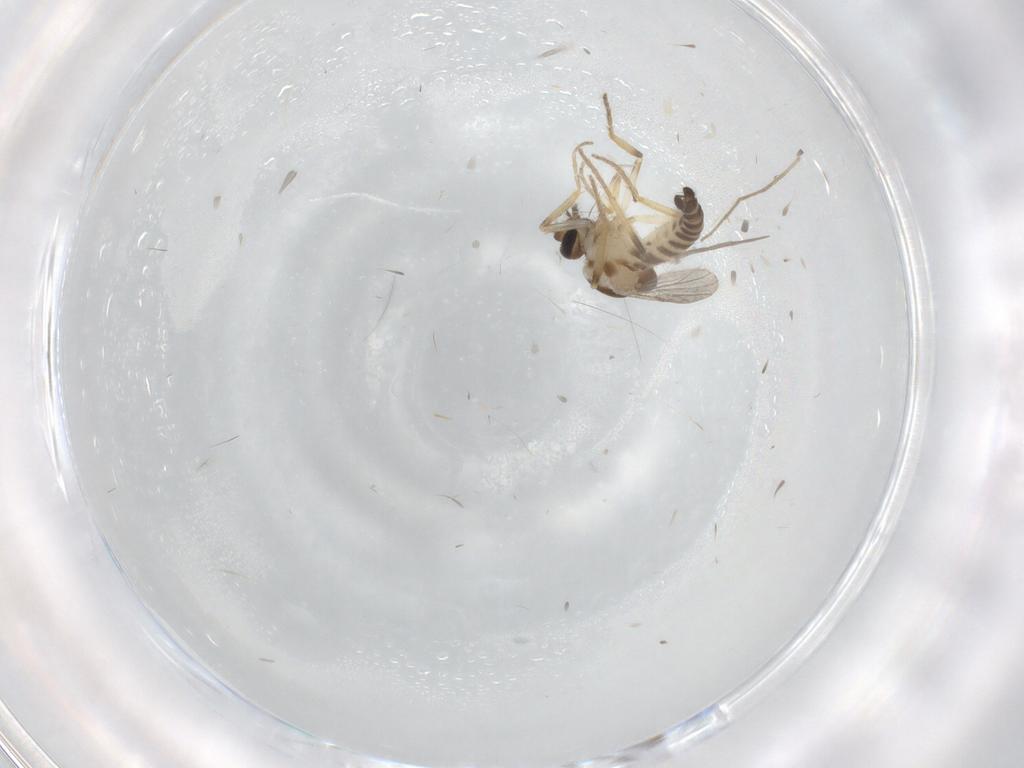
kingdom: Animalia
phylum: Arthropoda
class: Insecta
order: Diptera
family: Ceratopogonidae
